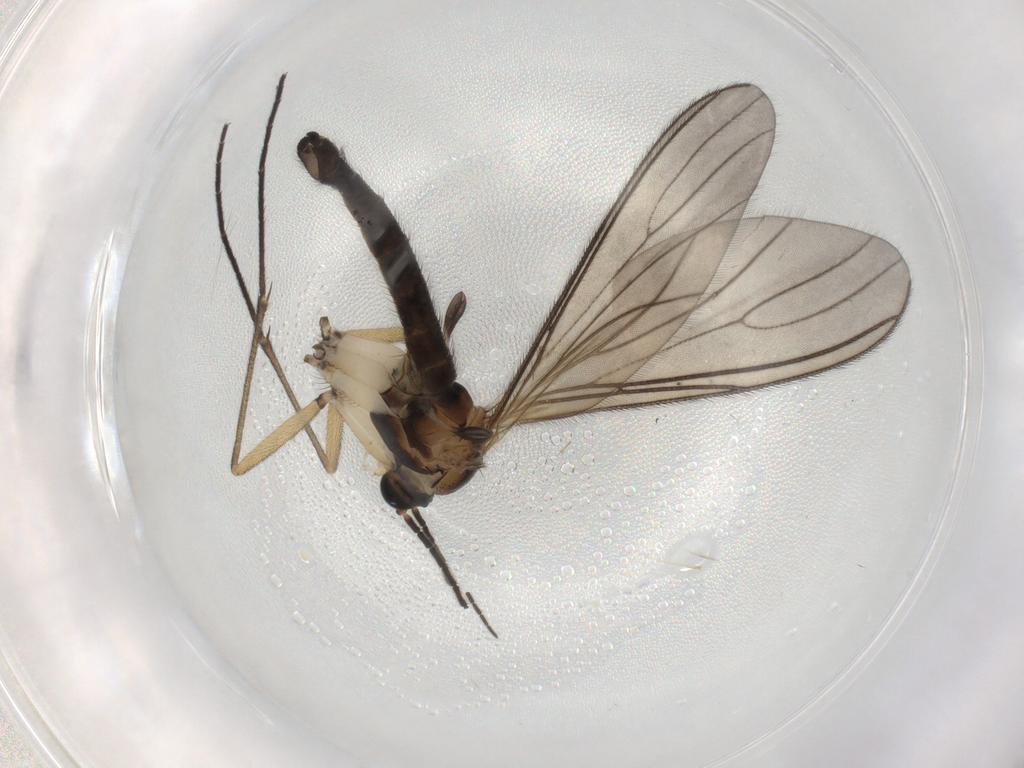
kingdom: Animalia
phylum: Arthropoda
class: Insecta
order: Diptera
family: Sciaridae
